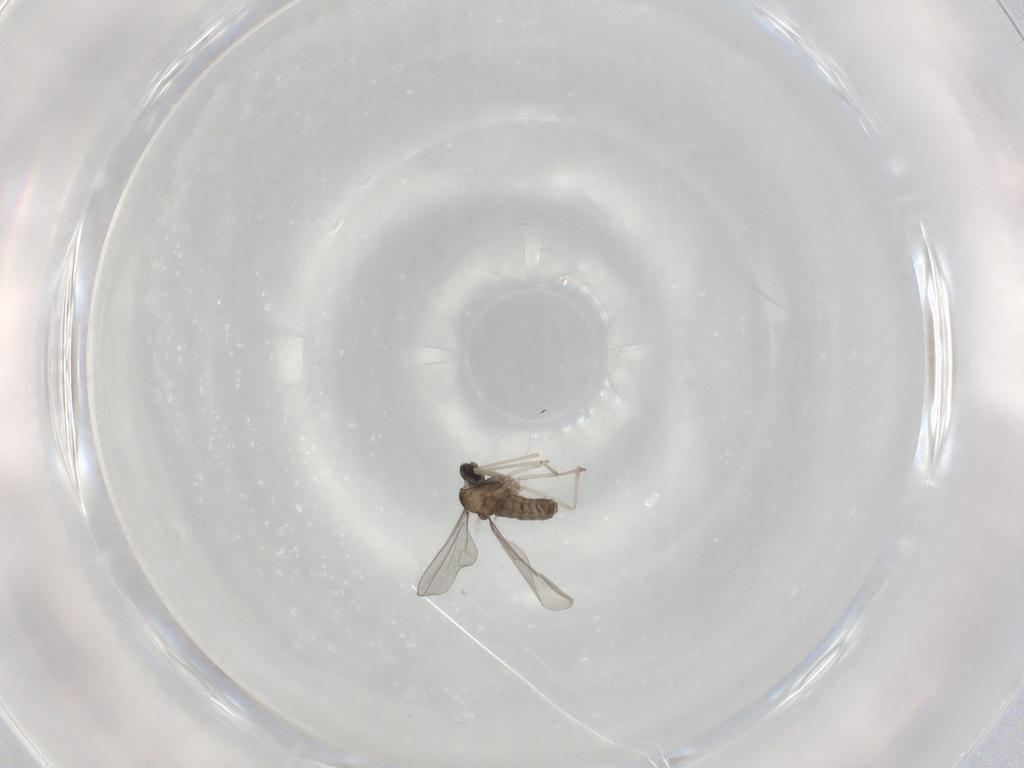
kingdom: Animalia
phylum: Arthropoda
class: Insecta
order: Diptera
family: Cecidomyiidae
